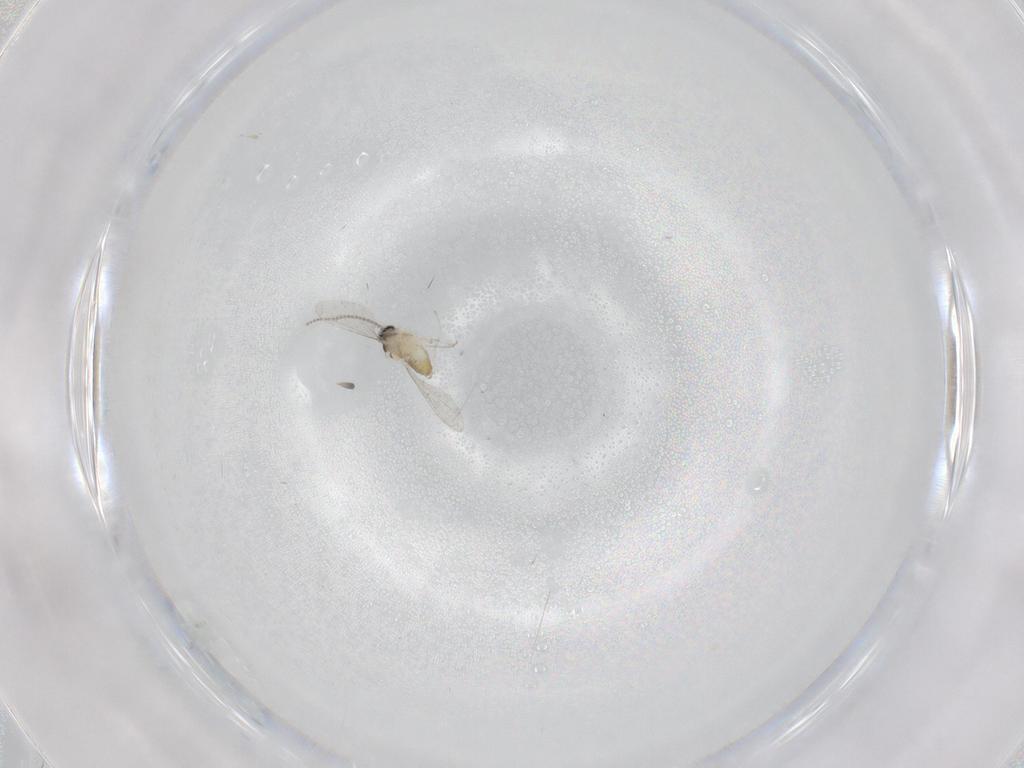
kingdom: Animalia
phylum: Arthropoda
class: Insecta
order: Diptera
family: Cecidomyiidae
